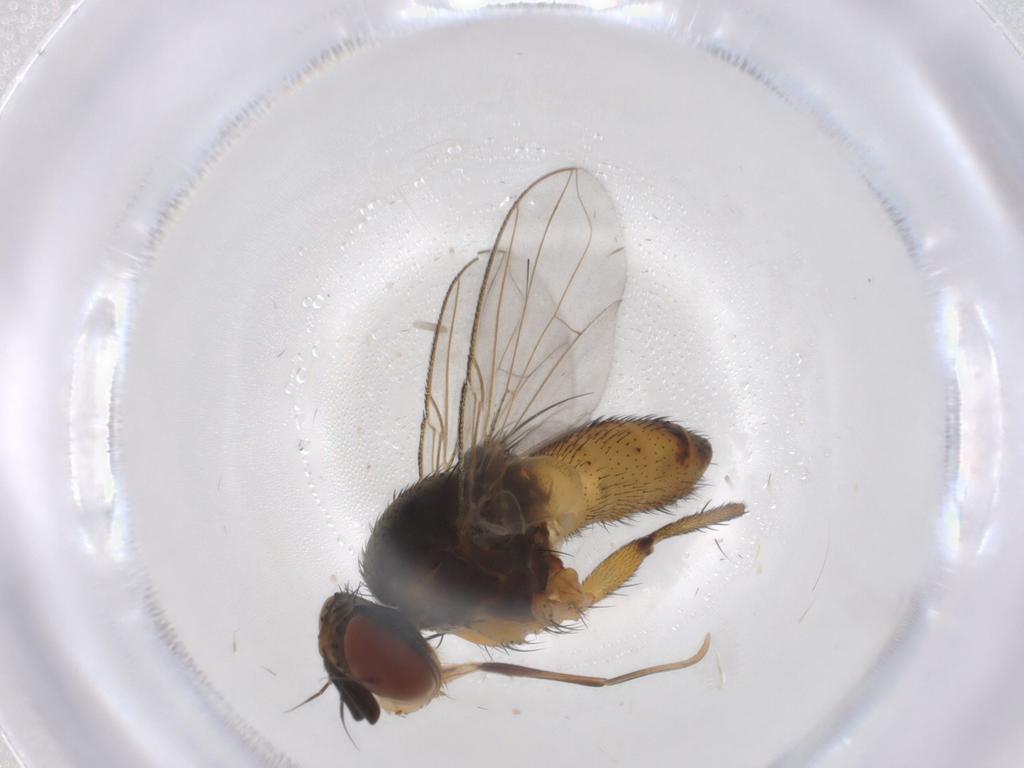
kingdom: Animalia
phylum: Arthropoda
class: Insecta
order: Diptera
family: Tachinidae
